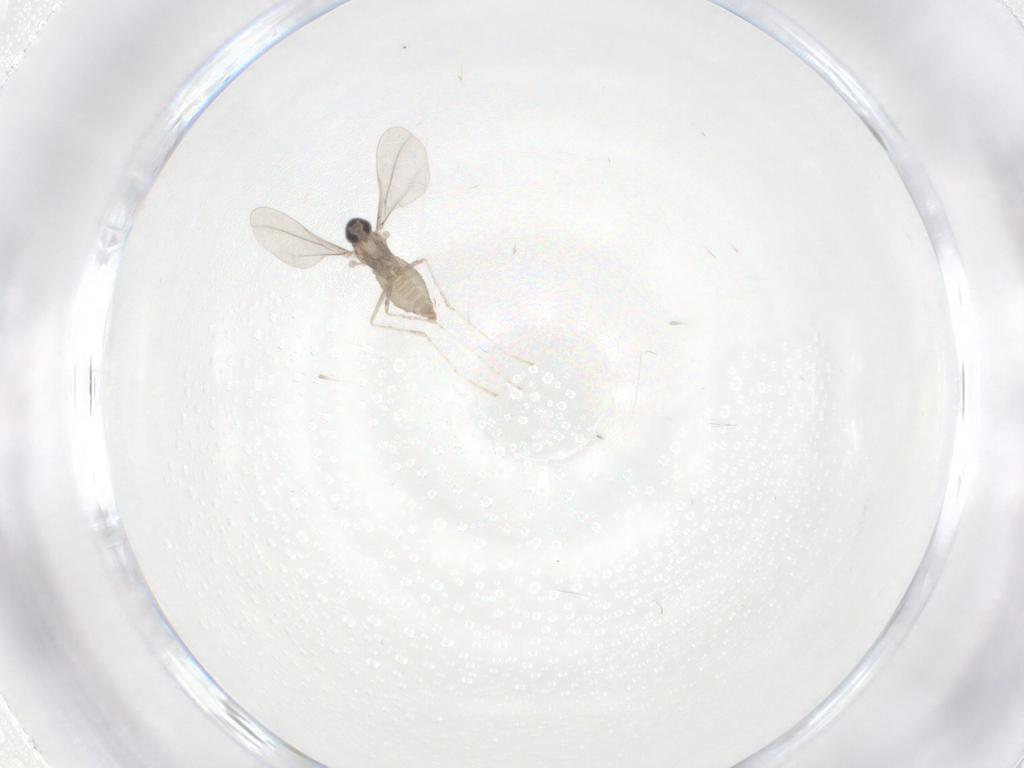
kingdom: Animalia
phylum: Arthropoda
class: Insecta
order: Diptera
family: Cecidomyiidae
